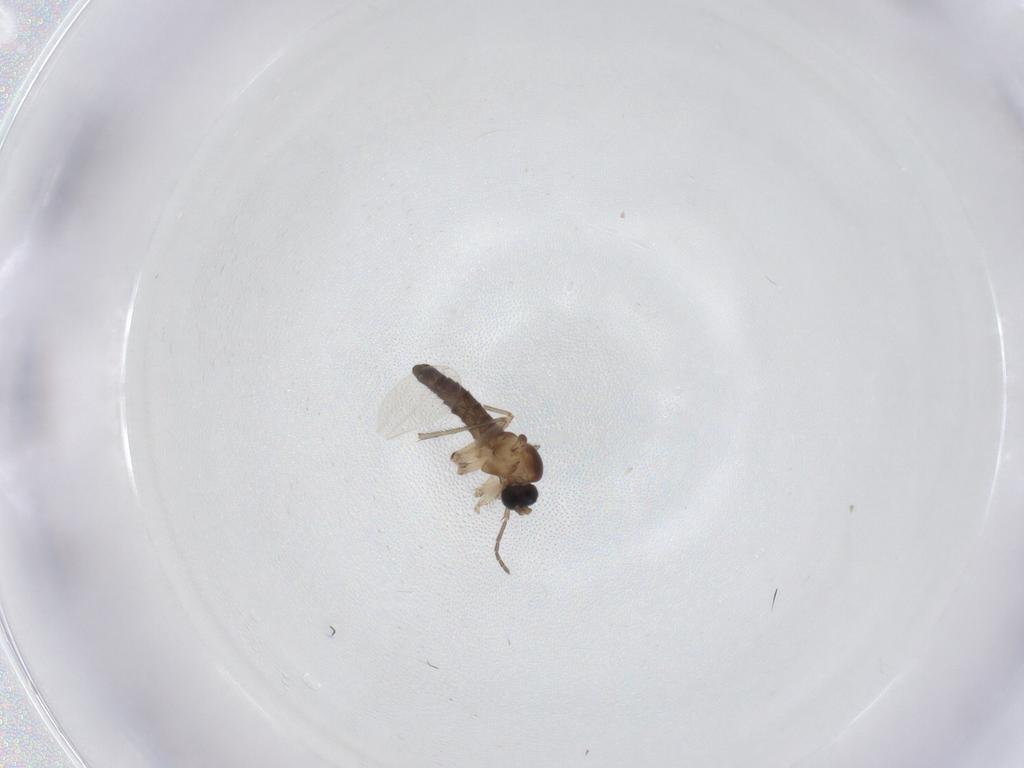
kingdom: Animalia
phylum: Arthropoda
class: Insecta
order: Diptera
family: Sciaridae
